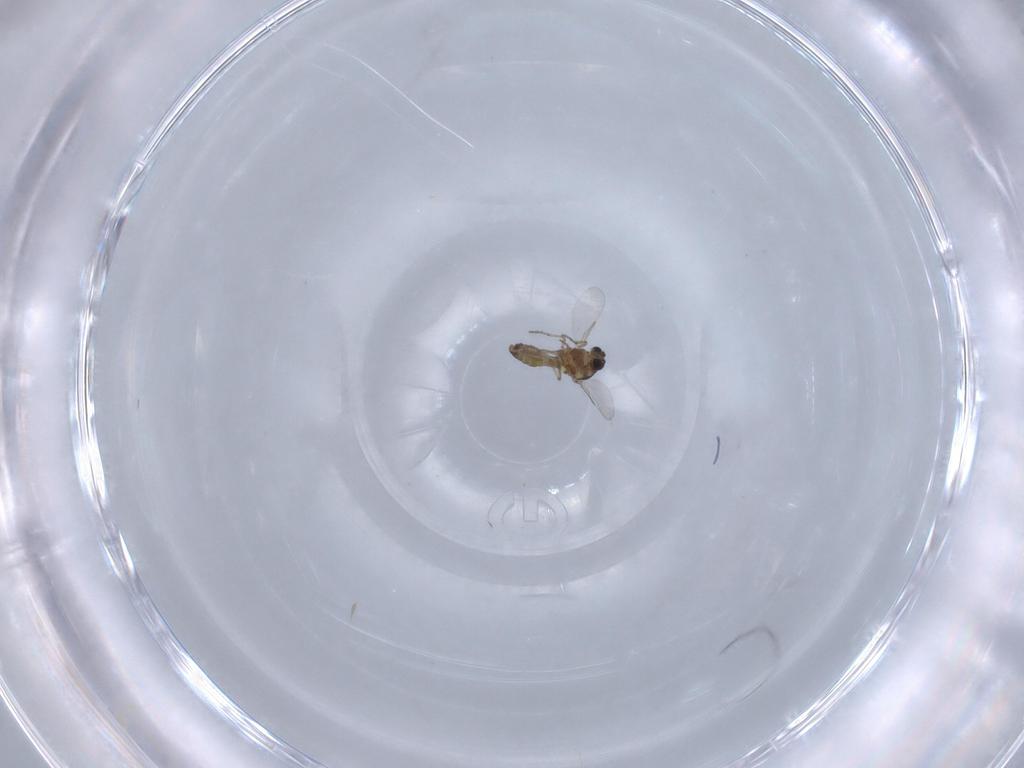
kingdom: Animalia
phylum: Arthropoda
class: Insecta
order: Diptera
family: Ceratopogonidae
